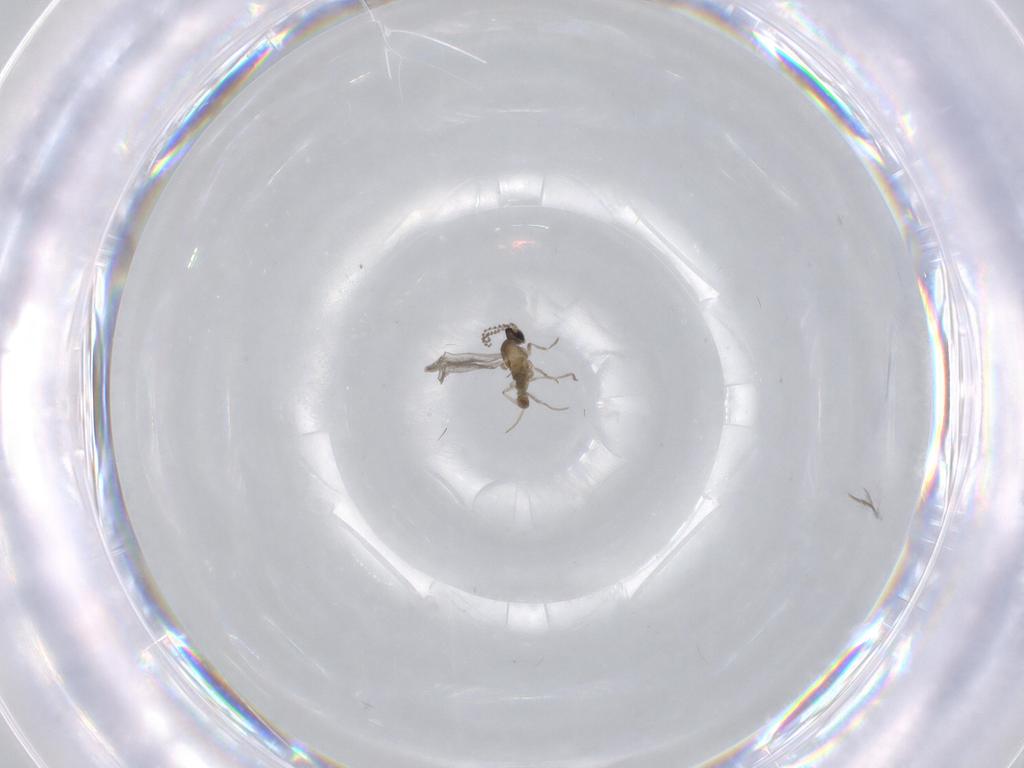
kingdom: Animalia
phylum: Arthropoda
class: Insecta
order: Diptera
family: Cecidomyiidae
